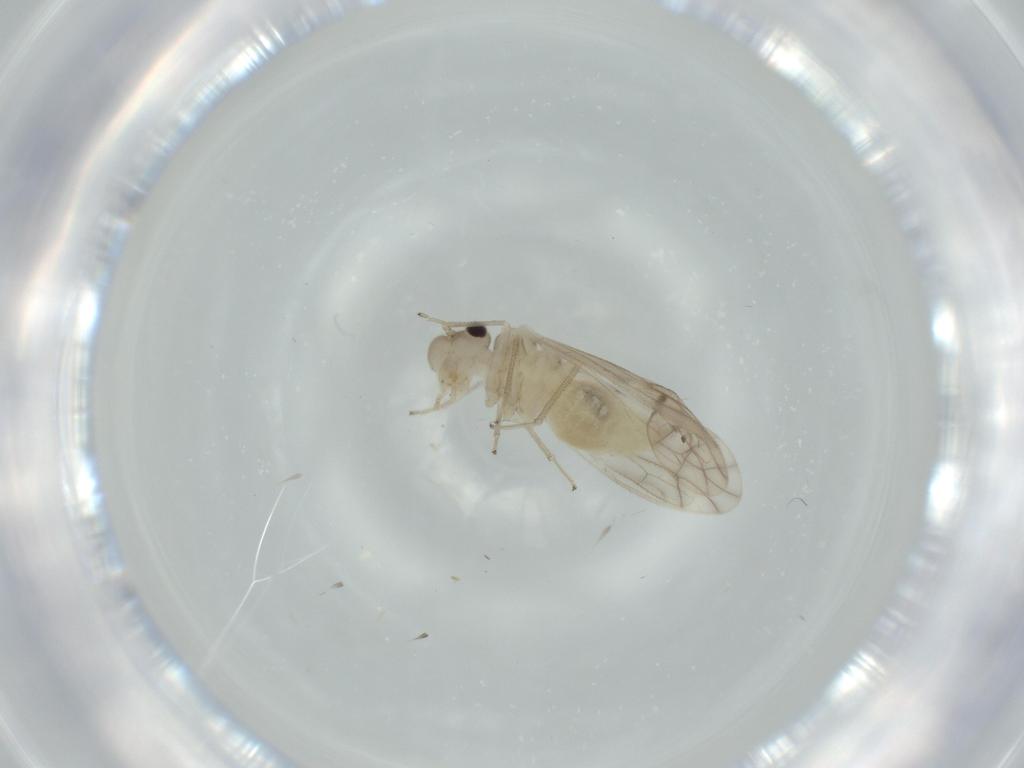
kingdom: Animalia
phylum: Arthropoda
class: Insecta
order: Psocodea
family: Caeciliusidae
